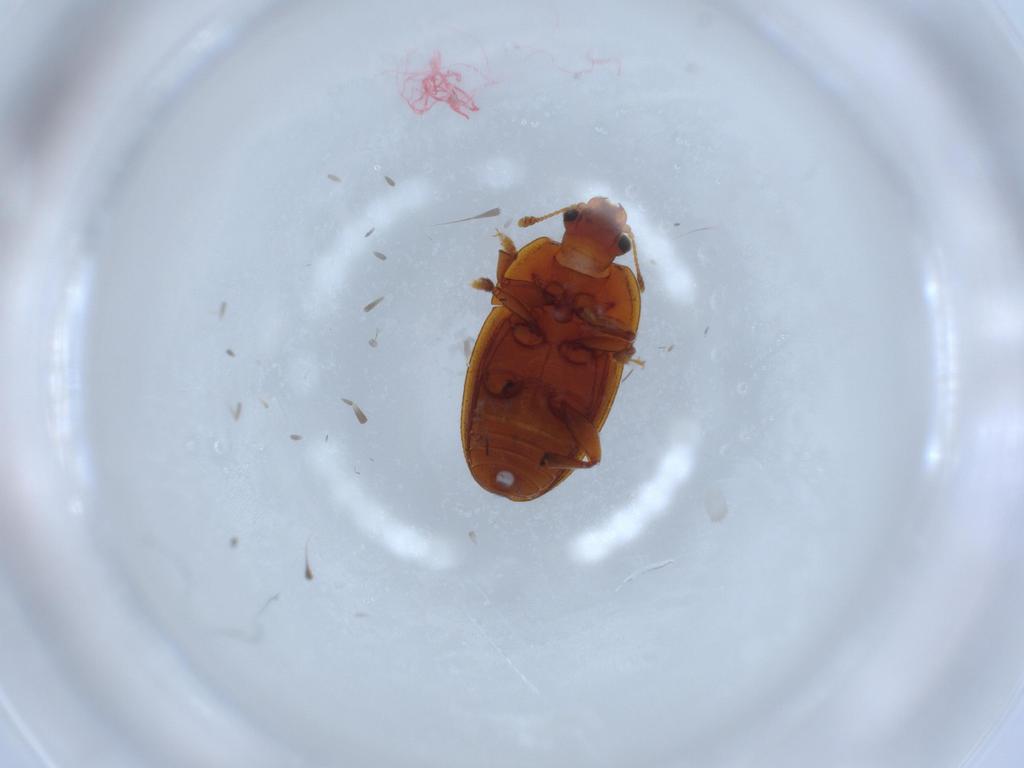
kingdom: Animalia
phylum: Arthropoda
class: Insecta
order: Coleoptera
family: Nitidulidae
